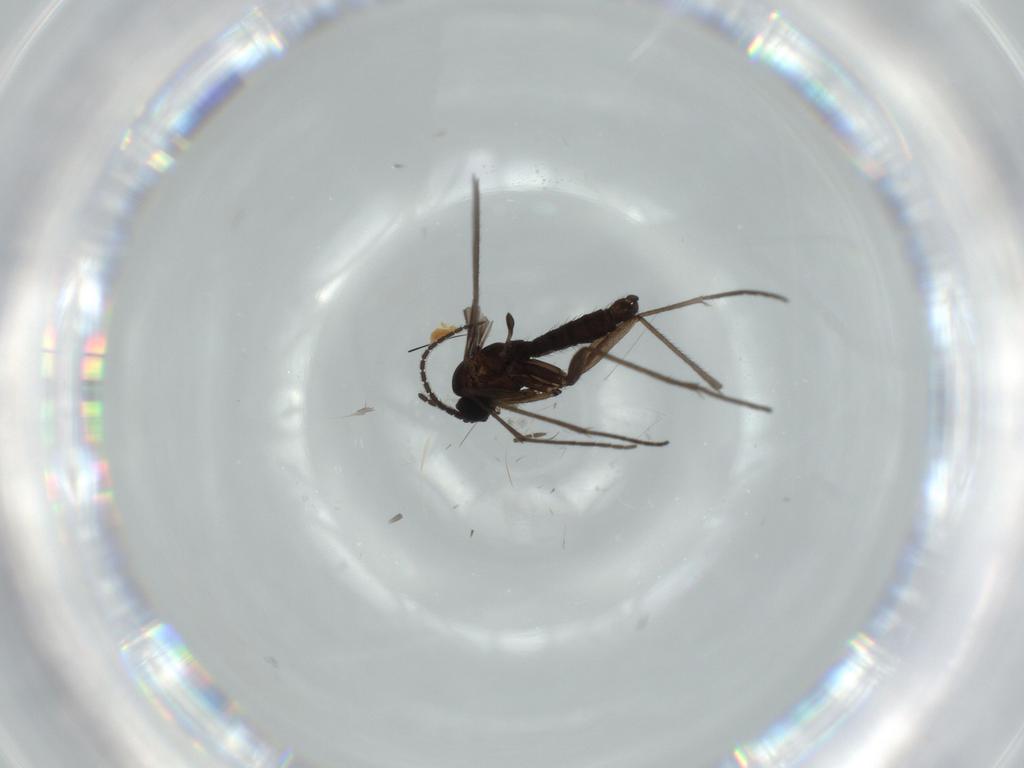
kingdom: Animalia
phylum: Arthropoda
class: Insecta
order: Diptera
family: Sciaridae
